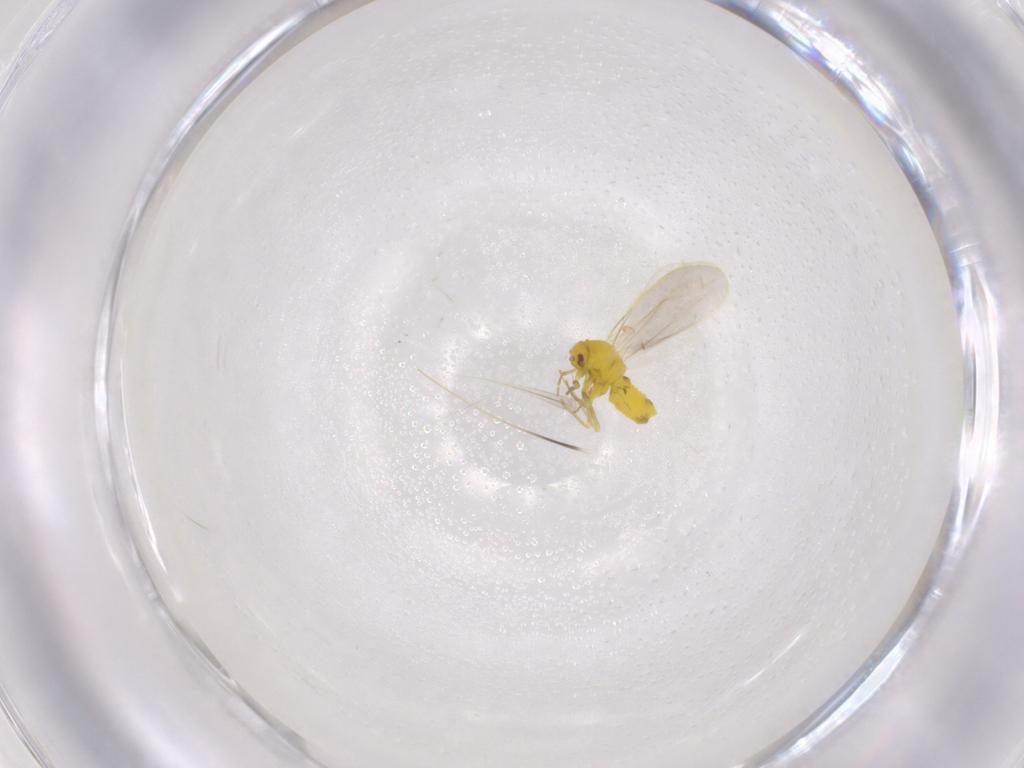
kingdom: Animalia
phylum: Arthropoda
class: Insecta
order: Hemiptera
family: Aleyrodidae
